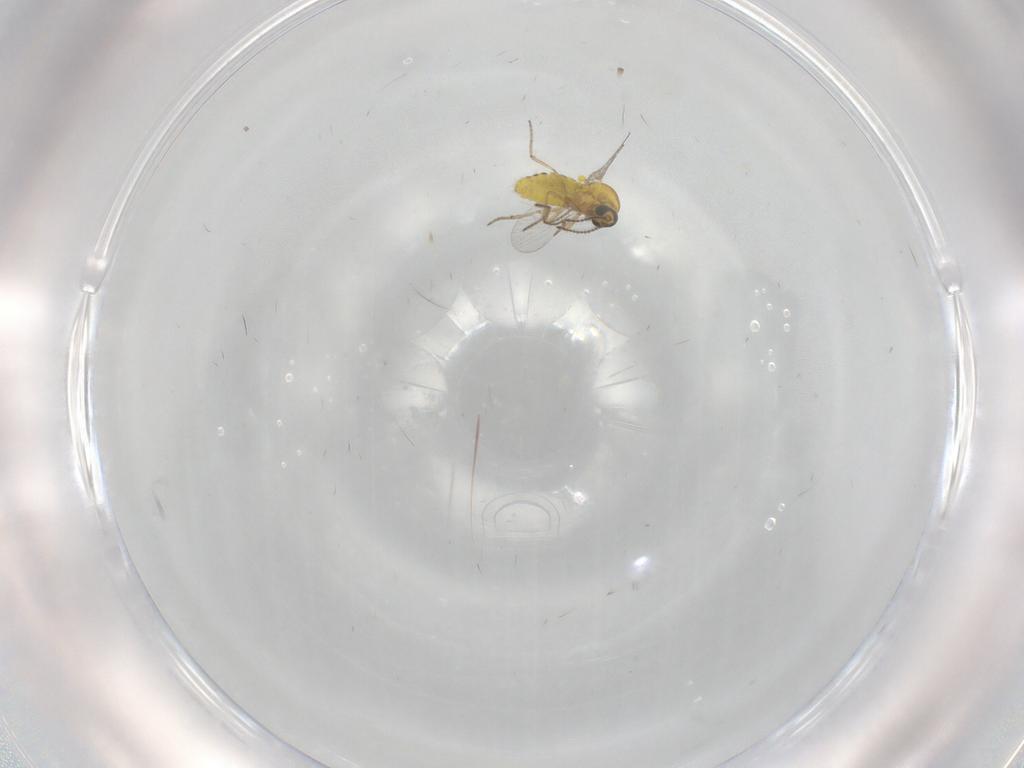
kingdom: Animalia
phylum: Arthropoda
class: Insecta
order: Diptera
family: Ceratopogonidae
